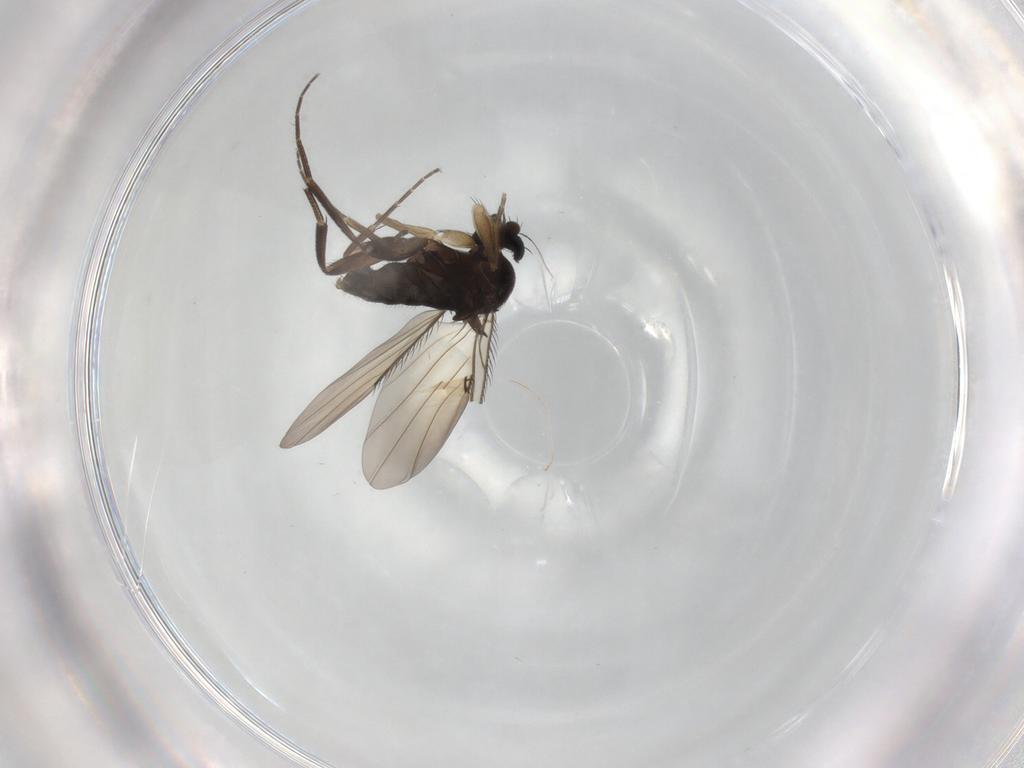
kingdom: Animalia
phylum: Arthropoda
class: Insecta
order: Diptera
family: Phoridae
